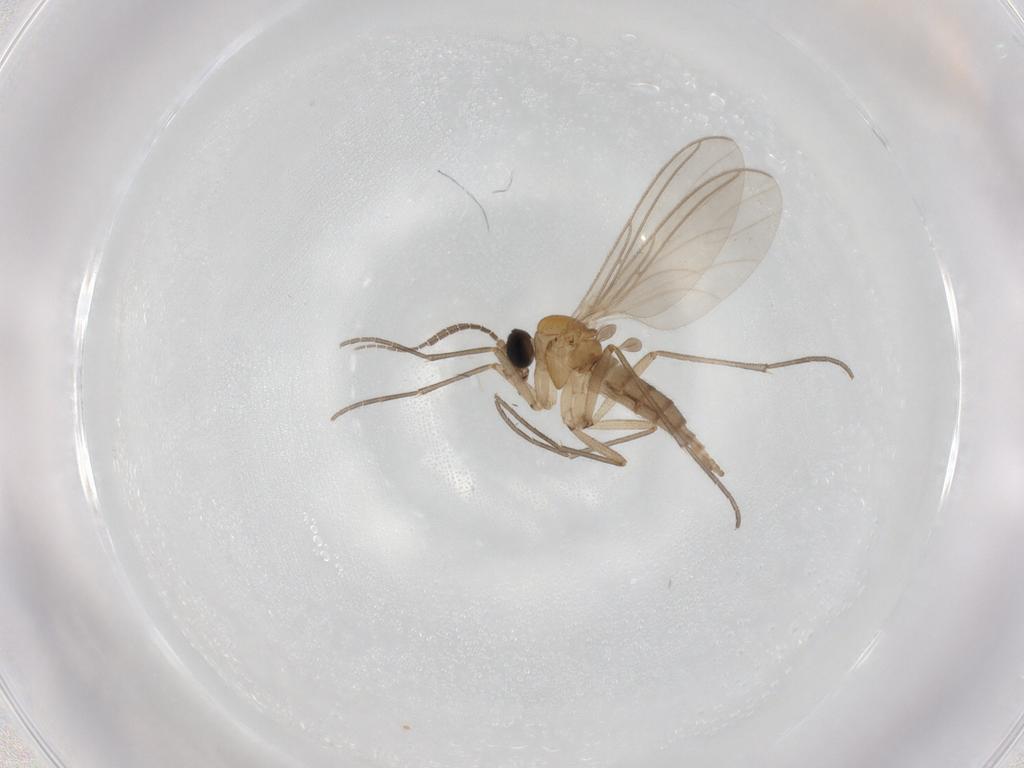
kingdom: Animalia
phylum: Arthropoda
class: Insecta
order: Diptera
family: Sciaridae
